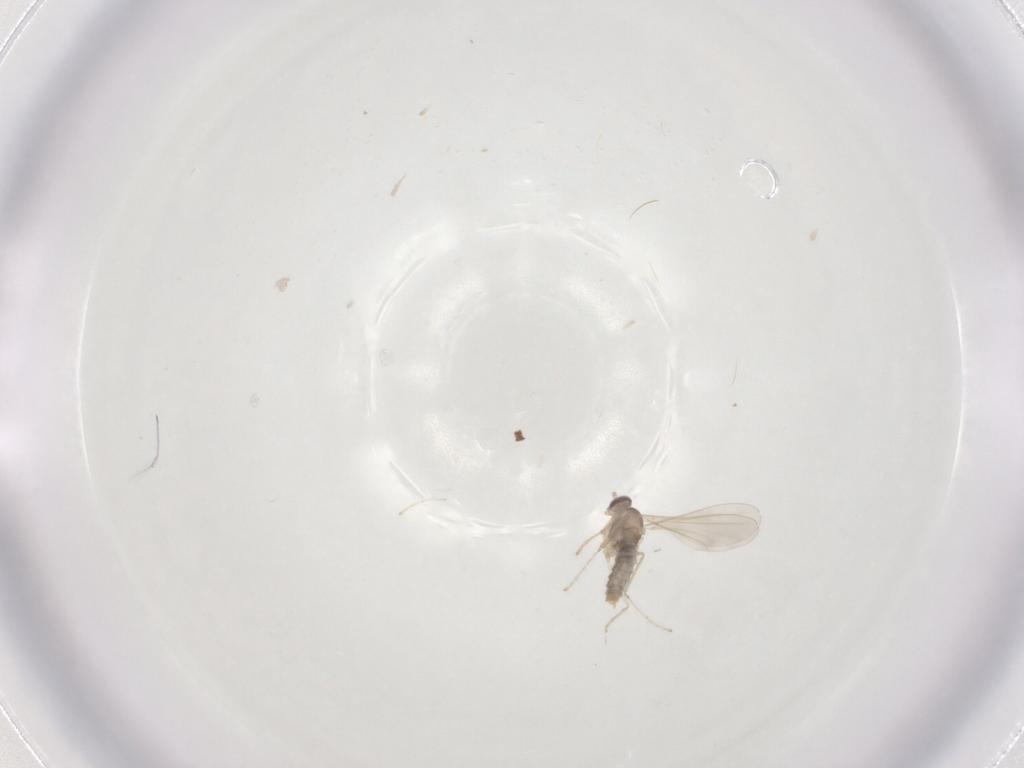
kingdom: Animalia
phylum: Arthropoda
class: Insecta
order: Diptera
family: Cecidomyiidae
